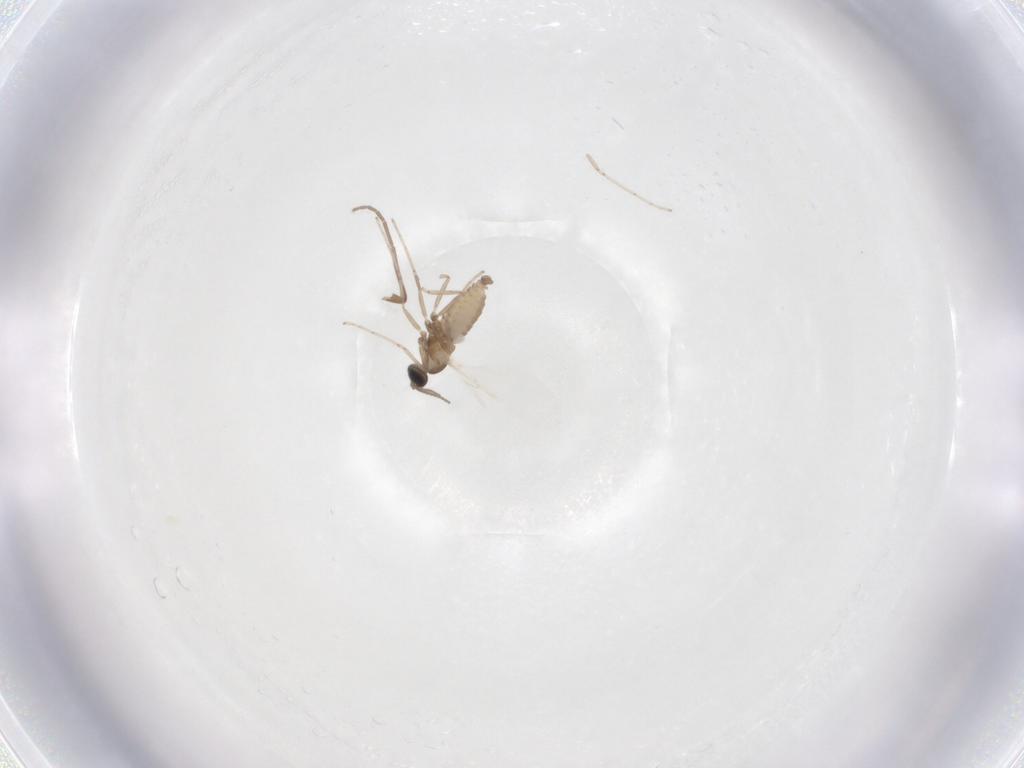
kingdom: Animalia
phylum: Arthropoda
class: Insecta
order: Diptera
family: Cecidomyiidae
